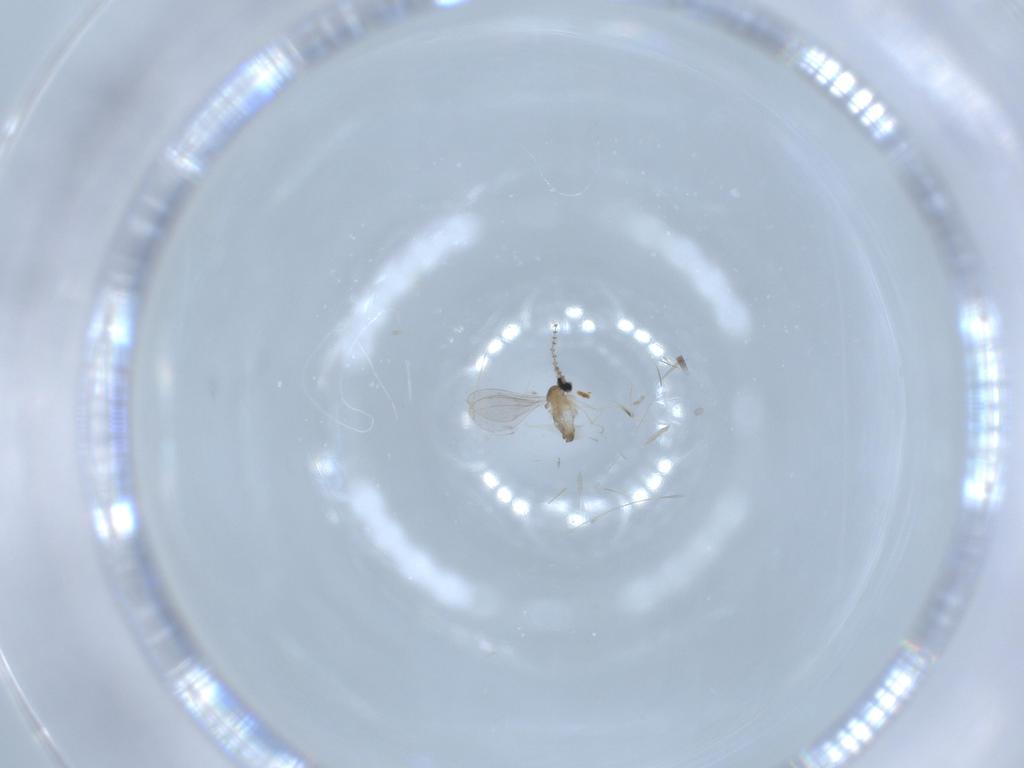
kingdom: Animalia
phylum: Arthropoda
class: Insecta
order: Diptera
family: Cecidomyiidae
